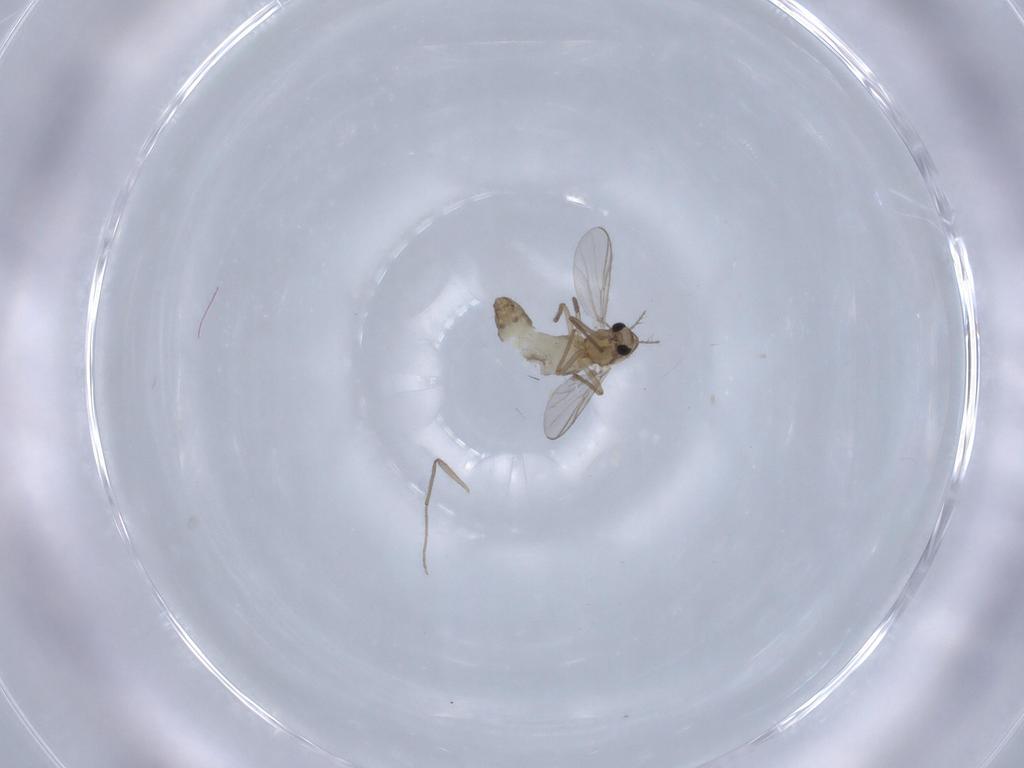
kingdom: Animalia
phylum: Arthropoda
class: Insecta
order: Diptera
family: Chironomidae
